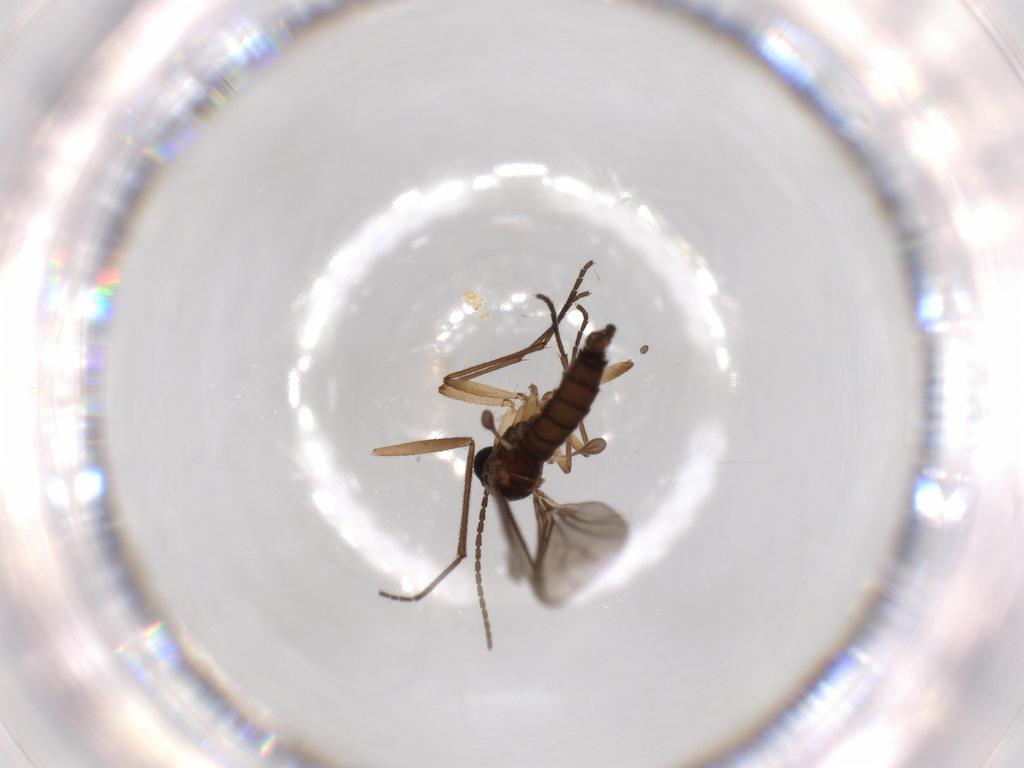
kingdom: Animalia
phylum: Arthropoda
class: Insecta
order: Diptera
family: Sciaridae
